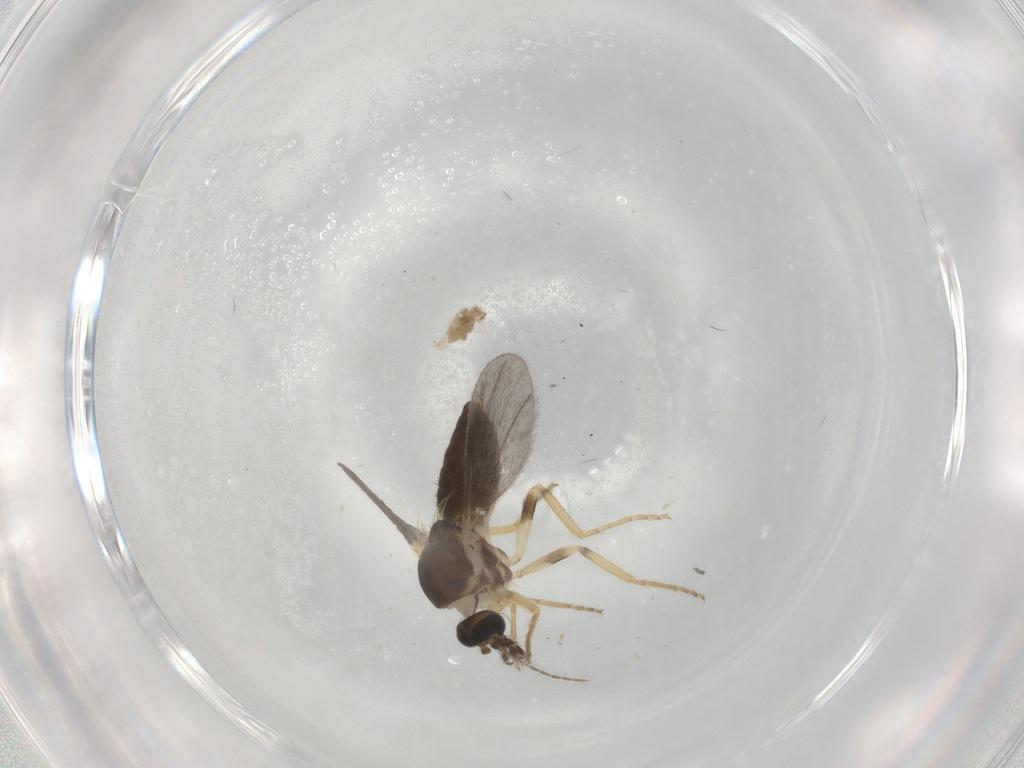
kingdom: Animalia
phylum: Arthropoda
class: Insecta
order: Diptera
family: Ceratopogonidae
